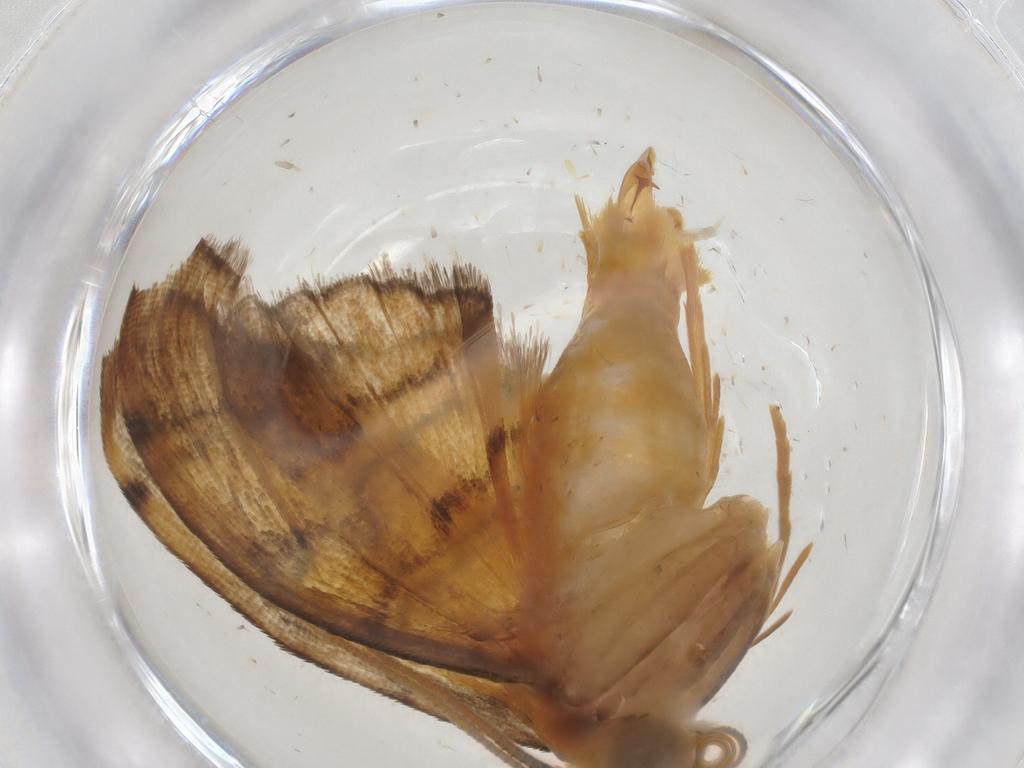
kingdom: Animalia
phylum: Arthropoda
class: Insecta
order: Lepidoptera
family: Crambidae
